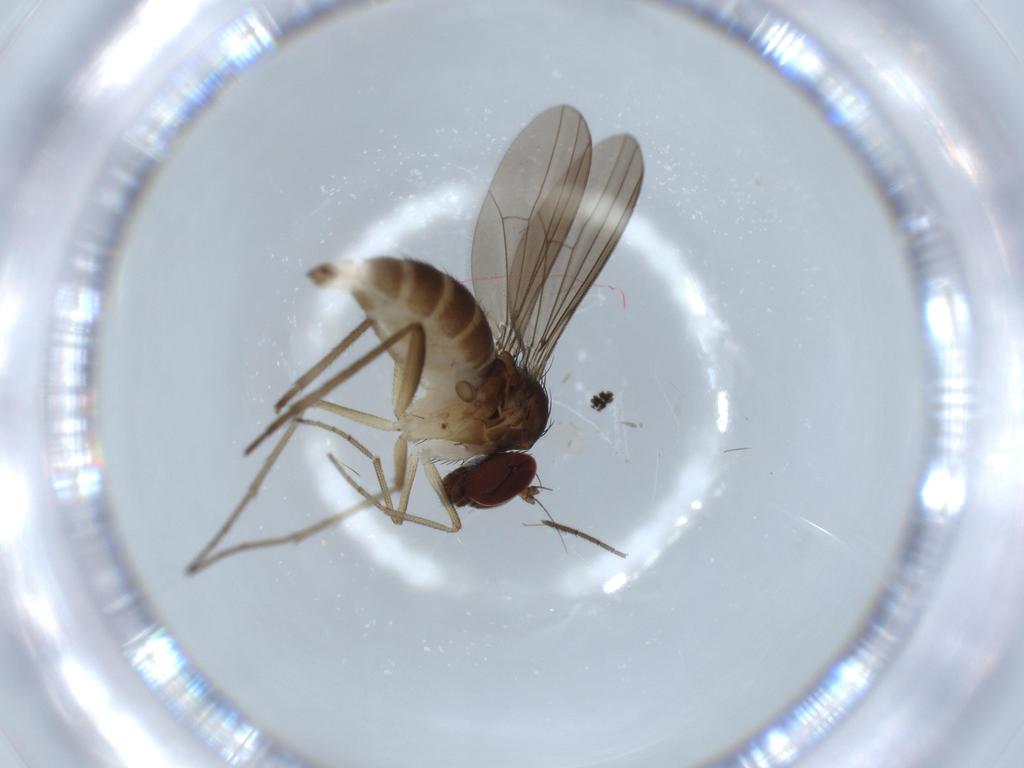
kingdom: Animalia
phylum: Arthropoda
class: Insecta
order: Diptera
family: Dolichopodidae
